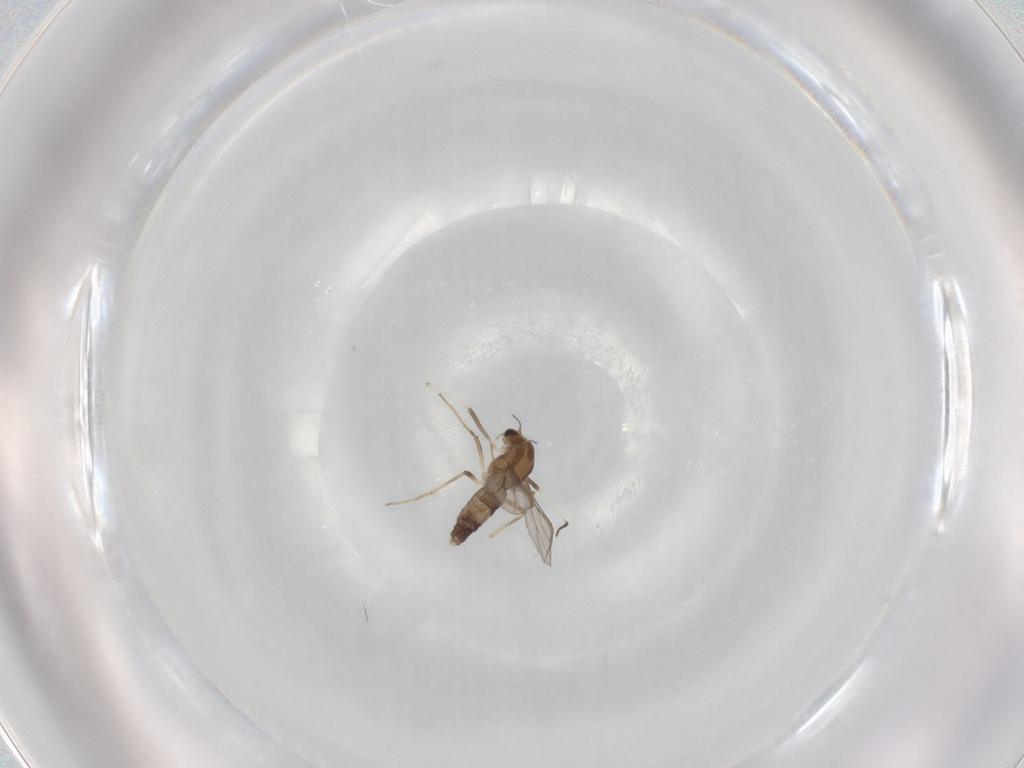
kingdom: Animalia
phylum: Arthropoda
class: Insecta
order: Diptera
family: Chironomidae
